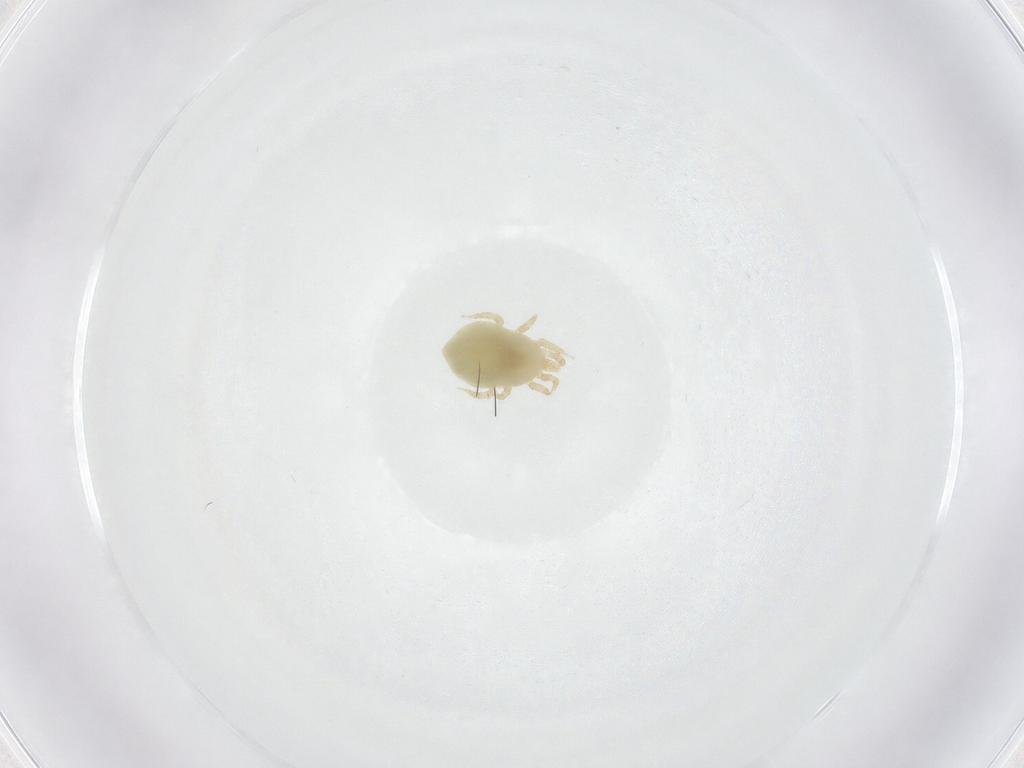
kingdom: Animalia
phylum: Arthropoda
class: Arachnida
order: Mesostigmata
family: Melicharidae
